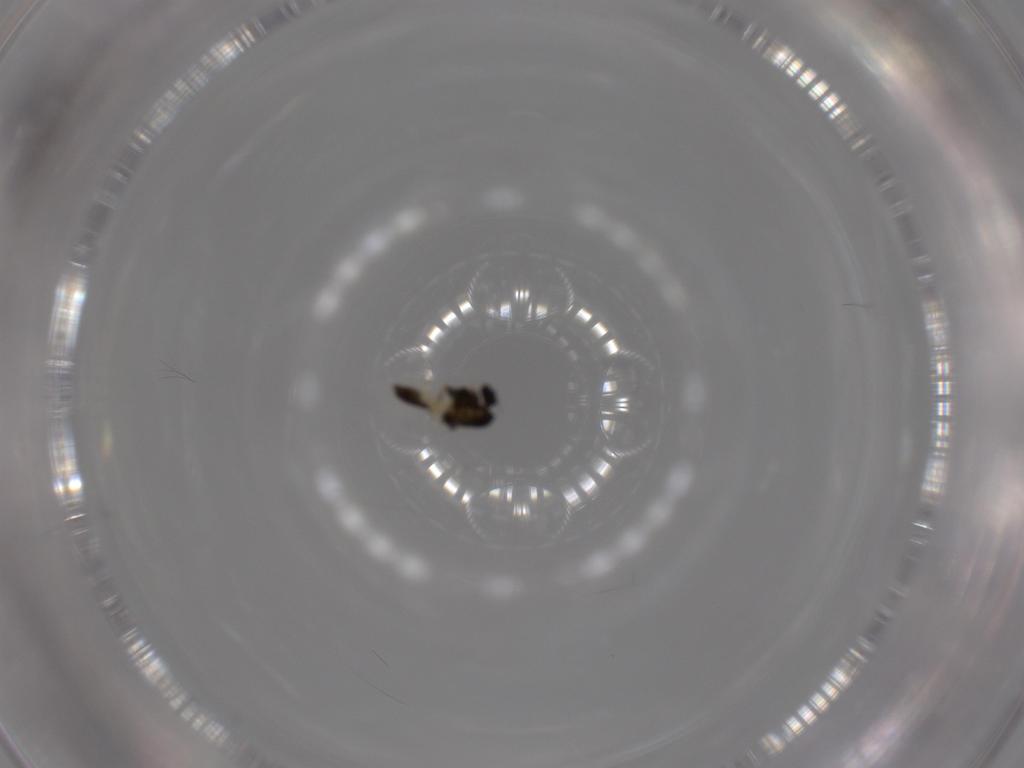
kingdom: Animalia
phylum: Arthropoda
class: Insecta
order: Diptera
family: Chironomidae
